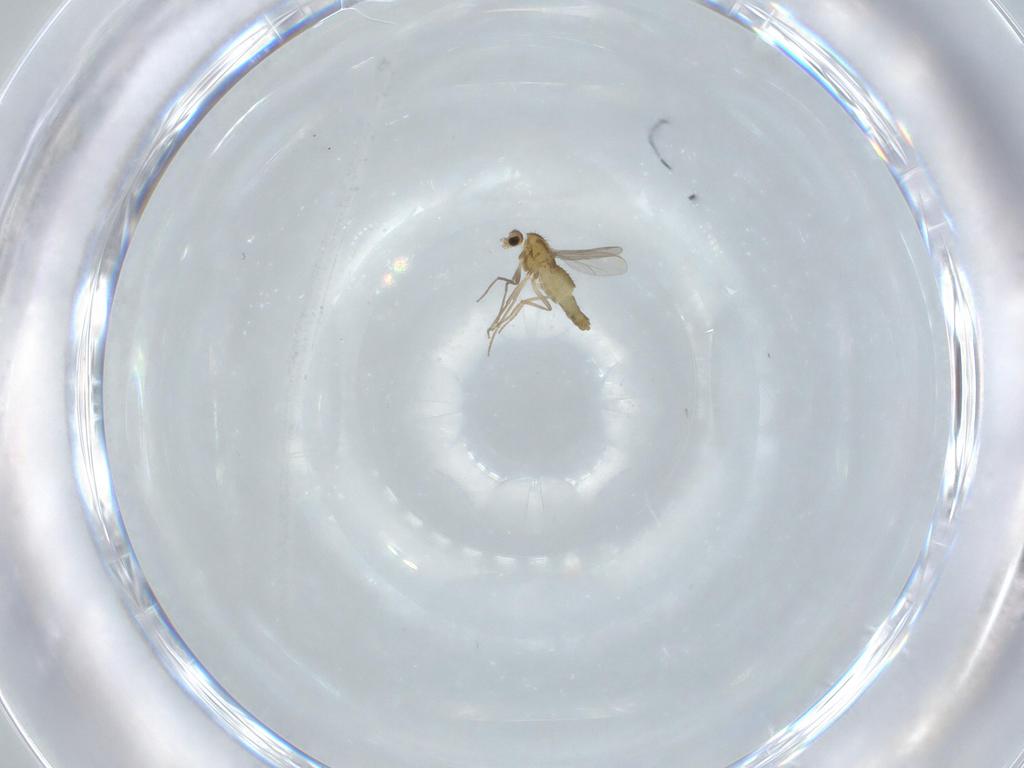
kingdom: Animalia
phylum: Arthropoda
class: Insecta
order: Diptera
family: Chironomidae
